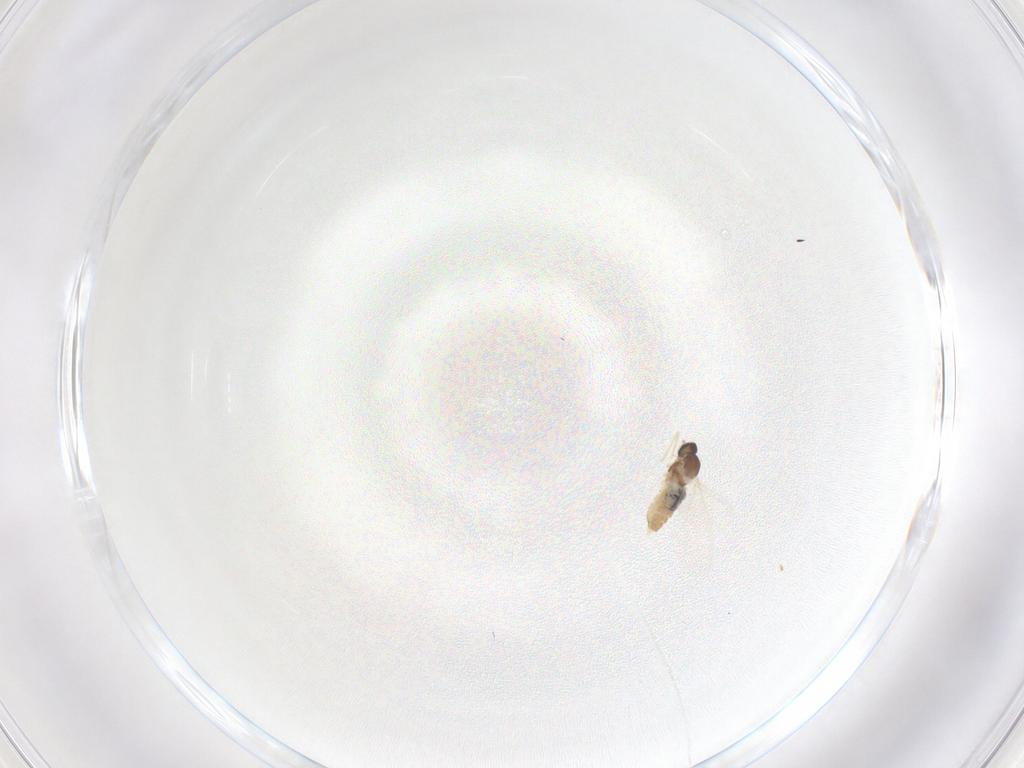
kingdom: Animalia
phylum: Arthropoda
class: Insecta
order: Diptera
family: Cecidomyiidae
